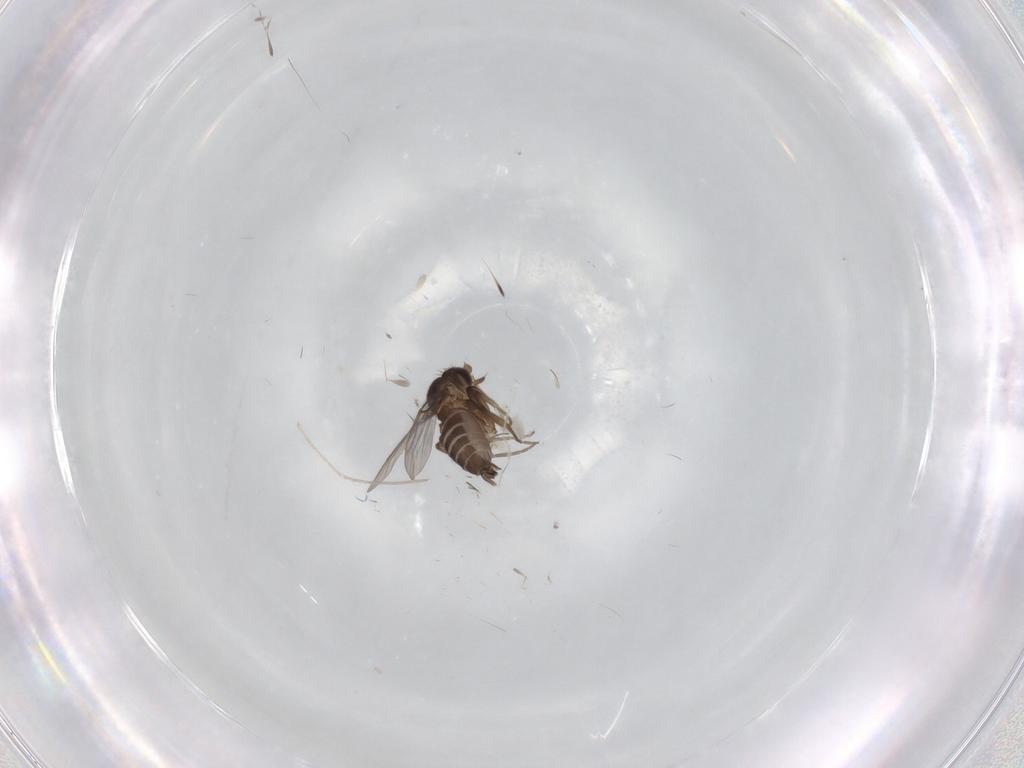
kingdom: Animalia
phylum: Arthropoda
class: Insecta
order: Diptera
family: Phoridae
